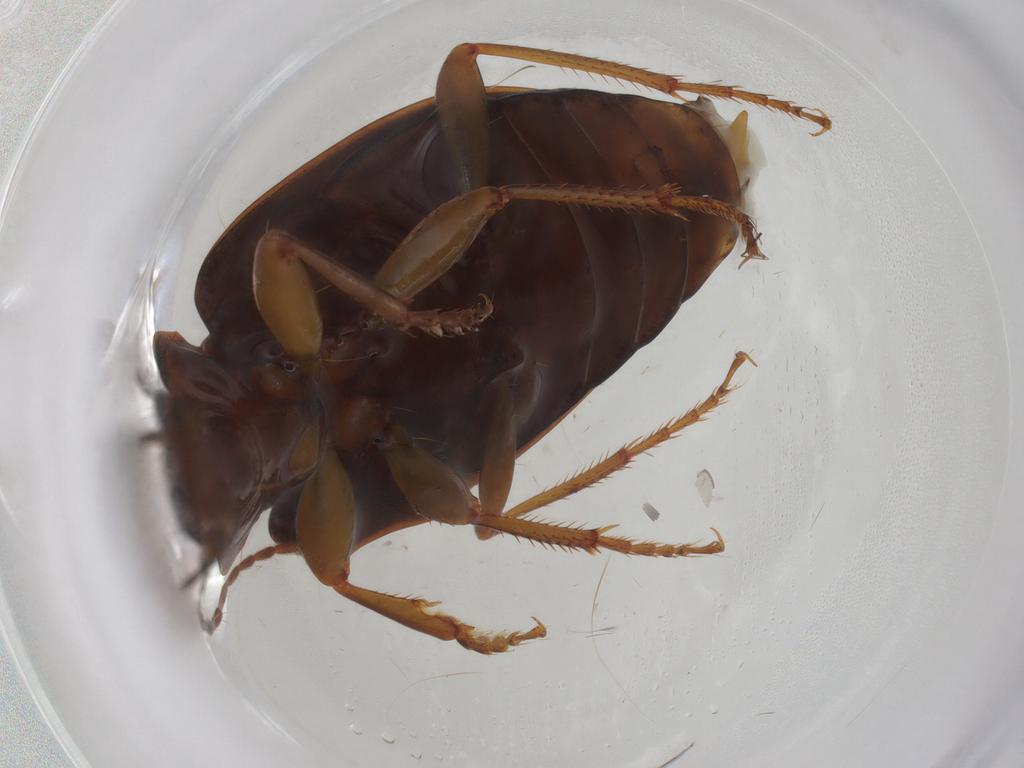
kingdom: Animalia
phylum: Arthropoda
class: Insecta
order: Coleoptera
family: Carabidae
